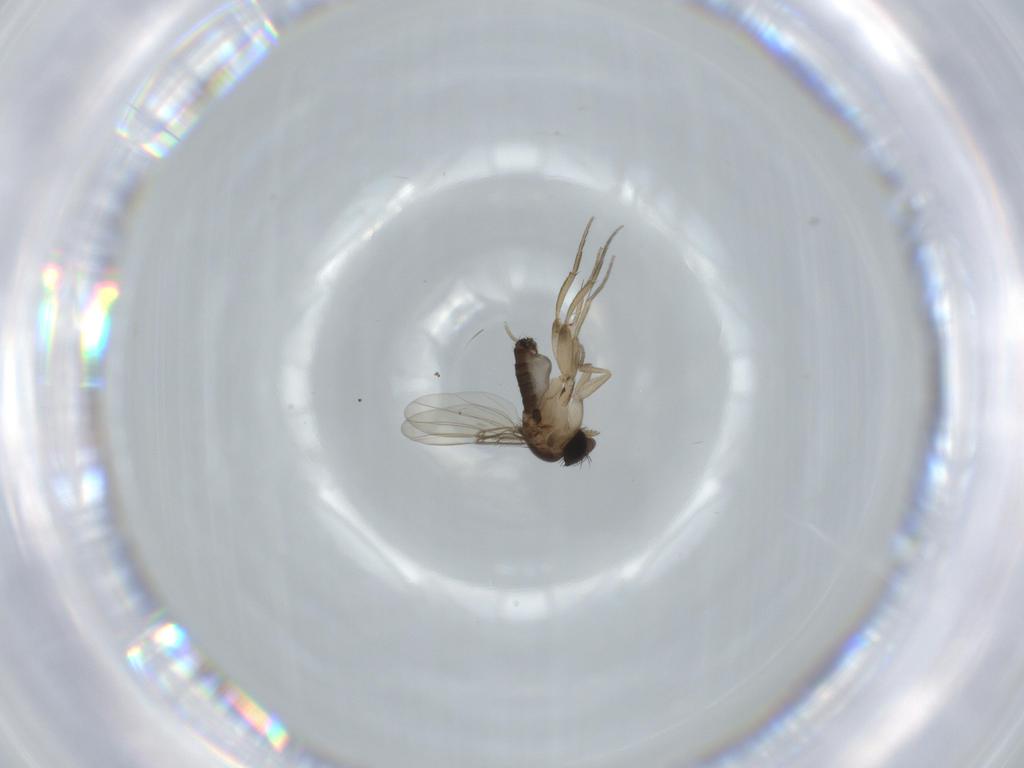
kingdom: Animalia
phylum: Arthropoda
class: Insecta
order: Diptera
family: Phoridae
